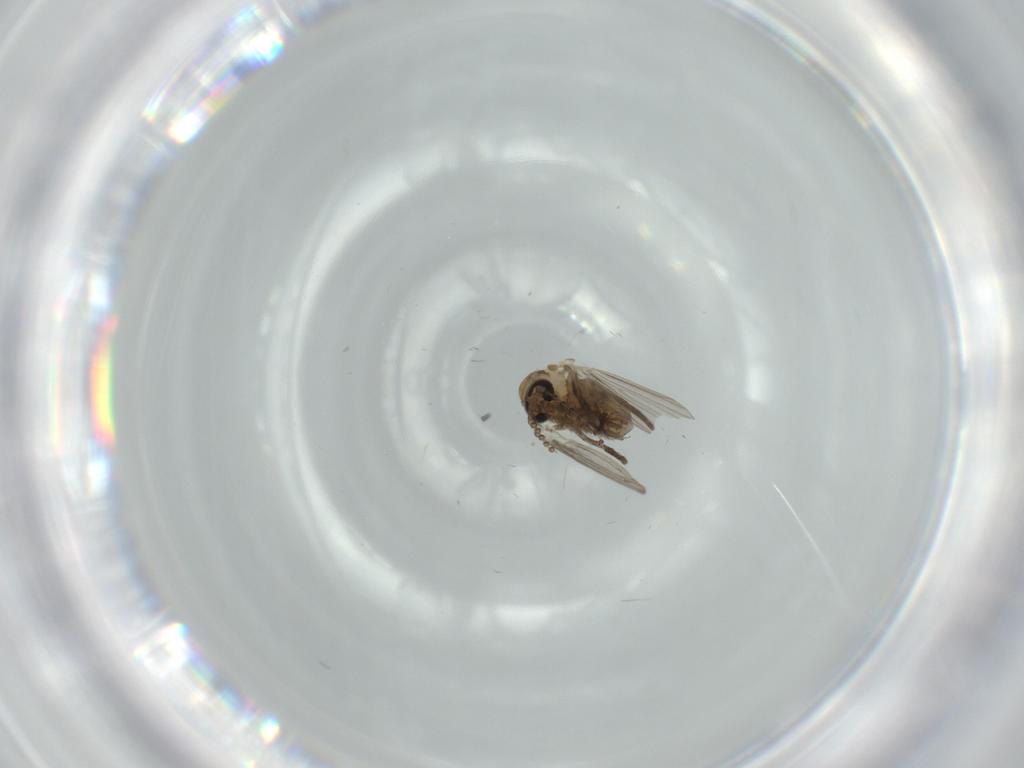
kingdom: Animalia
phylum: Arthropoda
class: Insecta
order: Diptera
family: Psychodidae
